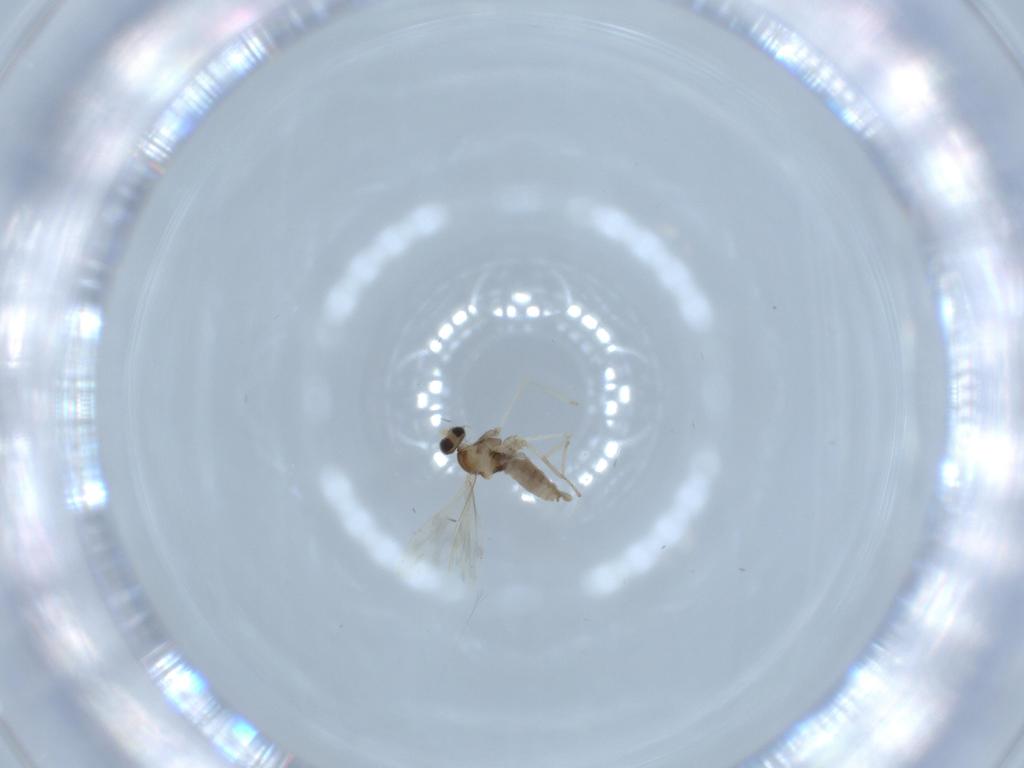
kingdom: Animalia
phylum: Arthropoda
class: Insecta
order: Diptera
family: Cecidomyiidae
